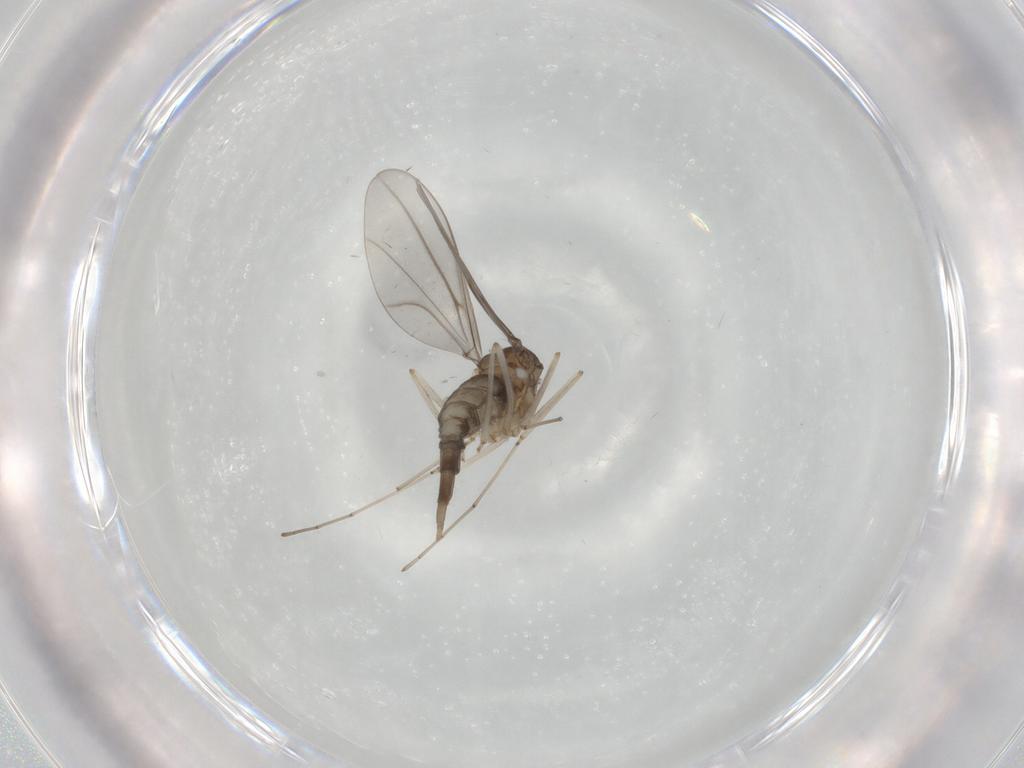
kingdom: Animalia
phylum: Arthropoda
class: Insecta
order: Diptera
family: Cecidomyiidae
